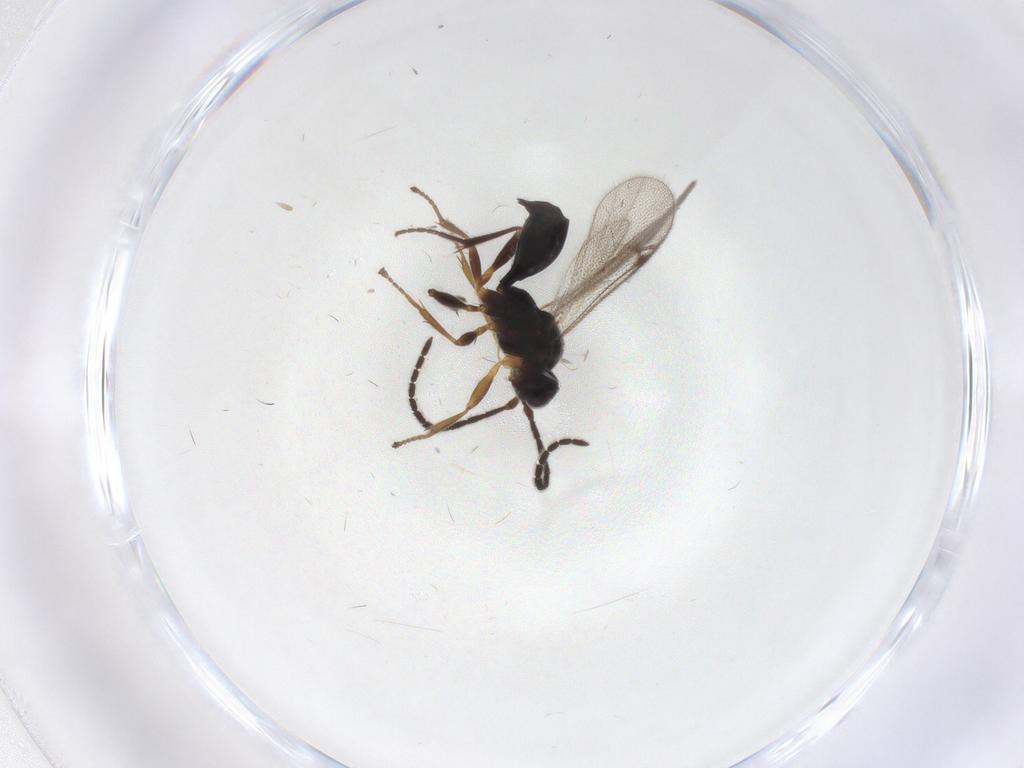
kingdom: Animalia
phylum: Arthropoda
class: Insecta
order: Hymenoptera
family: Proctotrupidae
